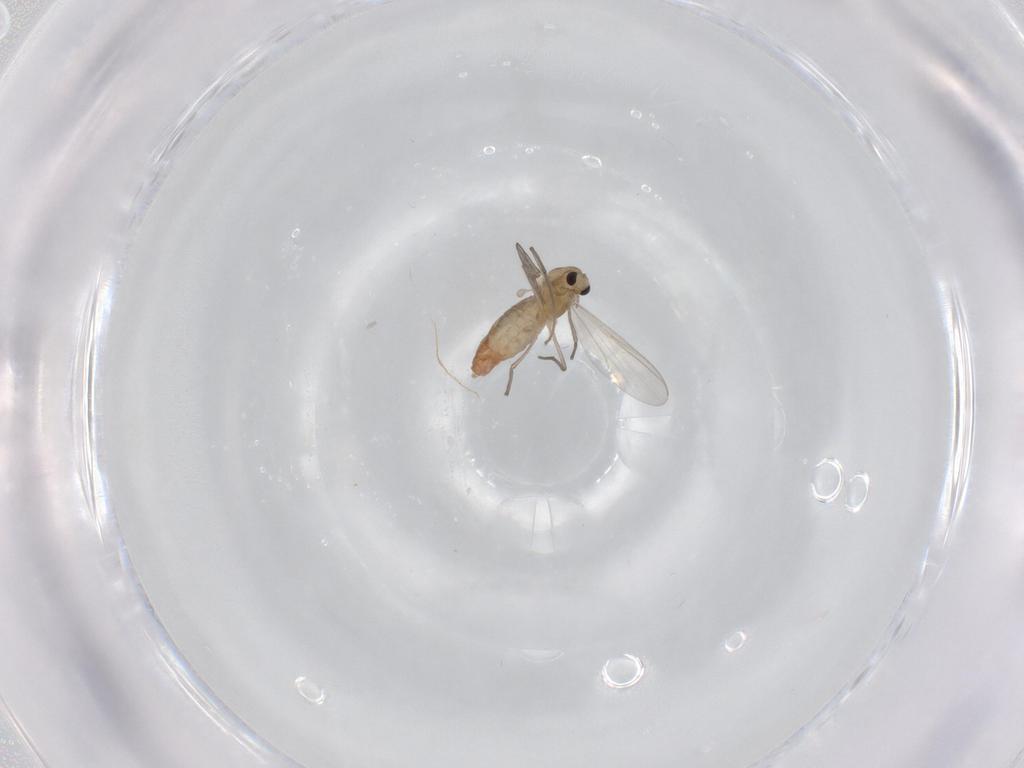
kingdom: Animalia
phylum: Arthropoda
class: Insecta
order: Diptera
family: Chironomidae
